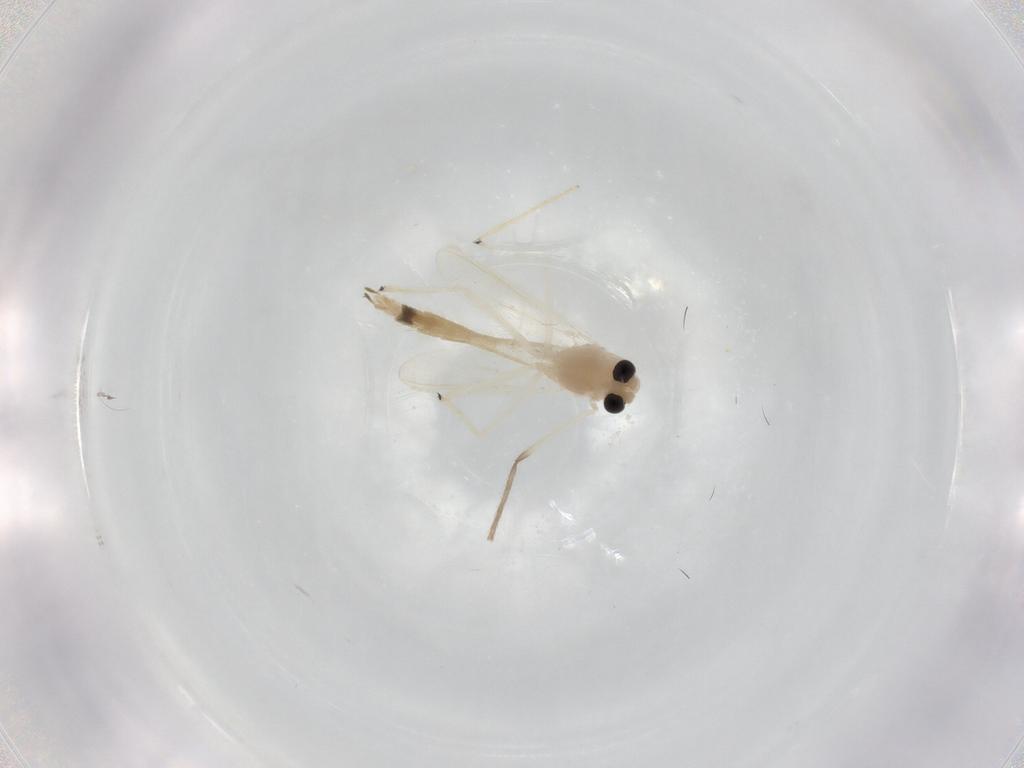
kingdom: Animalia
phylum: Arthropoda
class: Insecta
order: Diptera
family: Chironomidae
